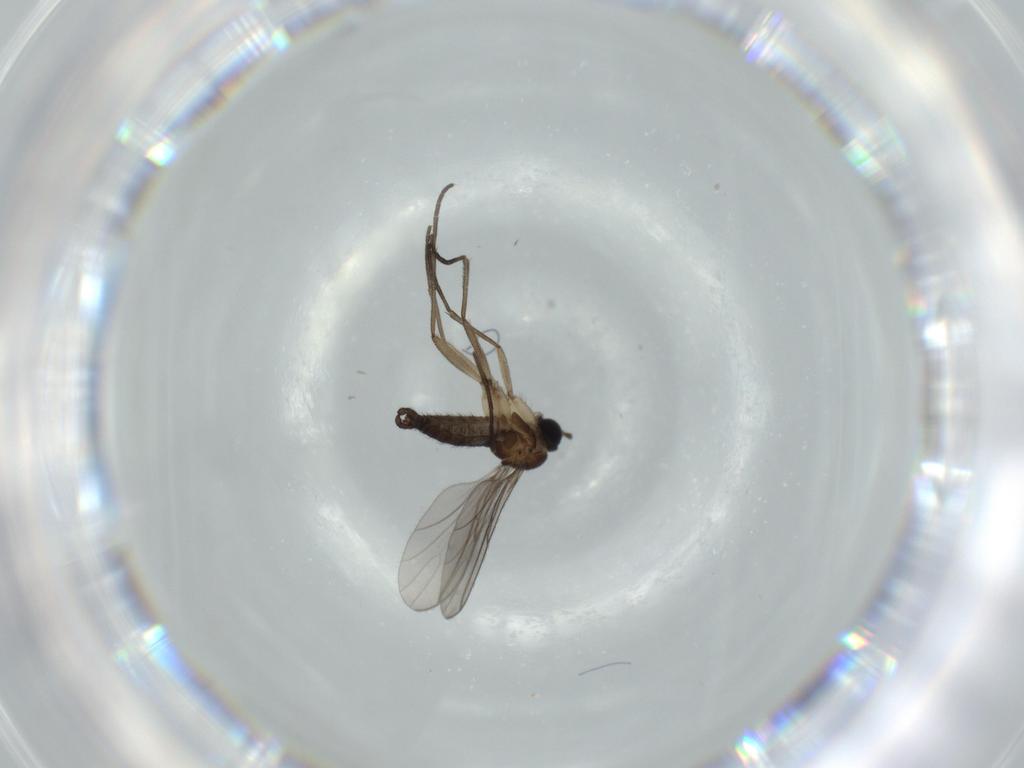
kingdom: Animalia
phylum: Arthropoda
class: Insecta
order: Diptera
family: Sciaridae
